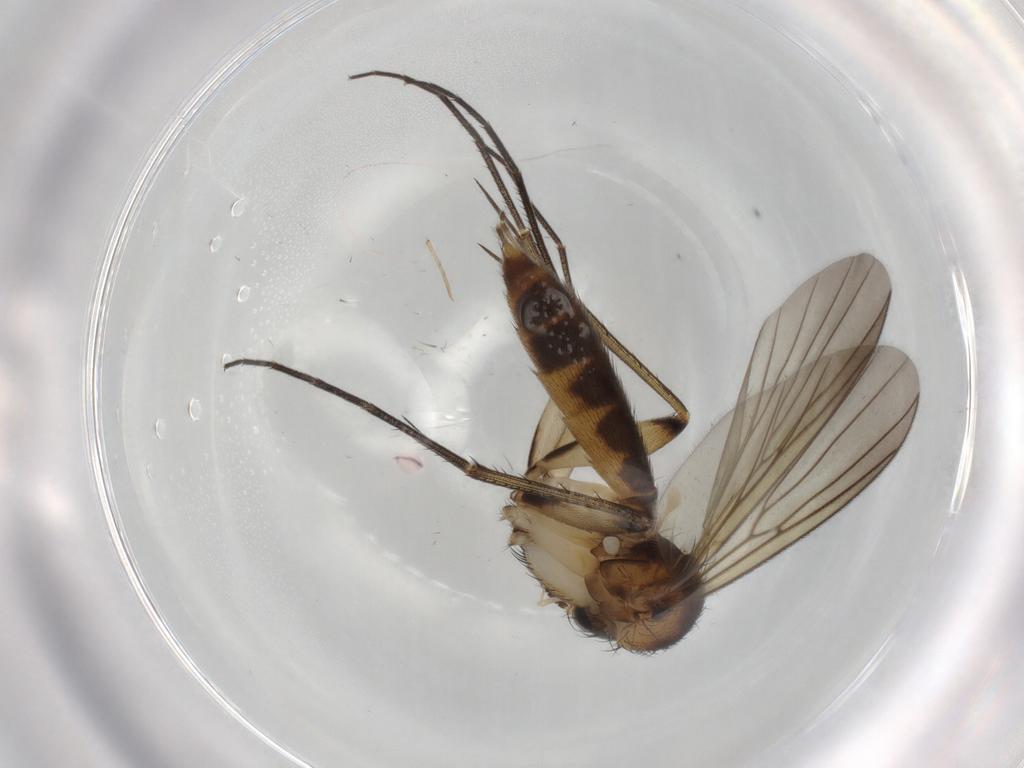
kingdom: Animalia
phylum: Arthropoda
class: Insecta
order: Diptera
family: Mycetophilidae
